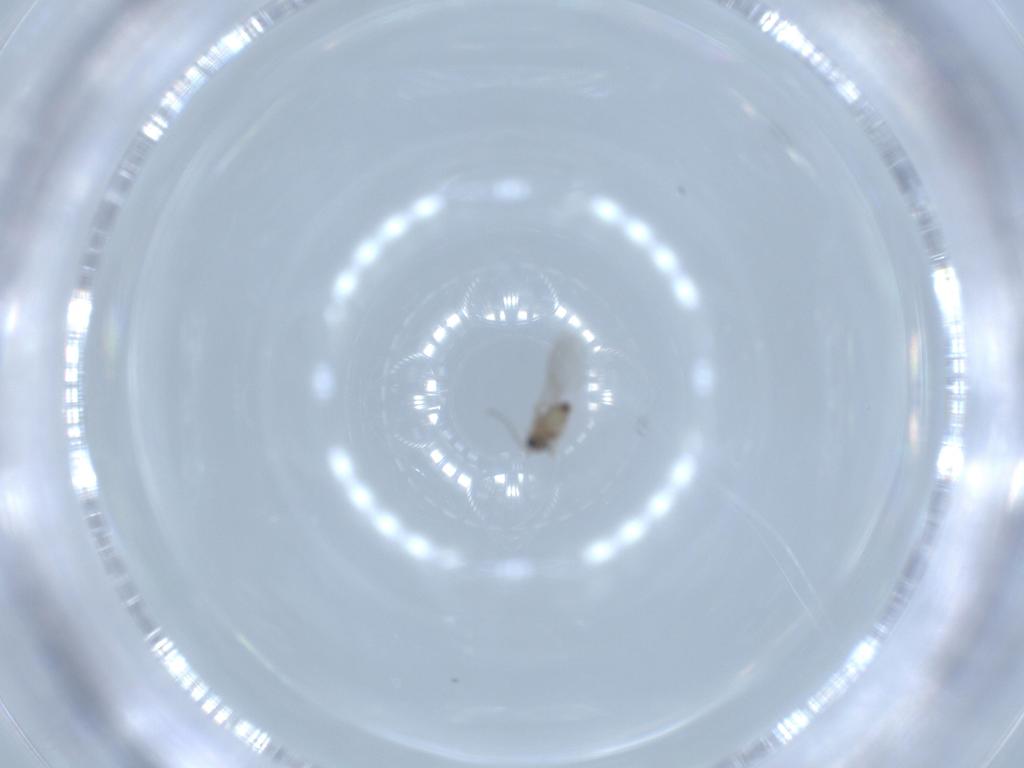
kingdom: Animalia
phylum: Arthropoda
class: Insecta
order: Diptera
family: Cecidomyiidae
